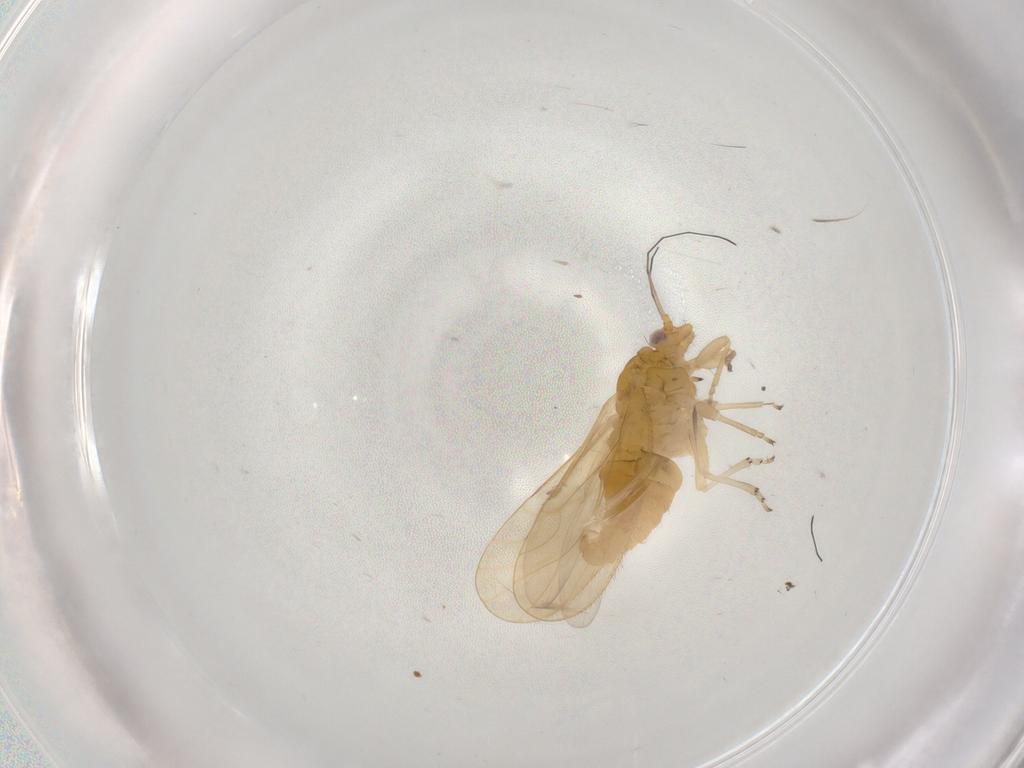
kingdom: Animalia
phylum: Arthropoda
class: Insecta
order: Hemiptera
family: Psyllidae
